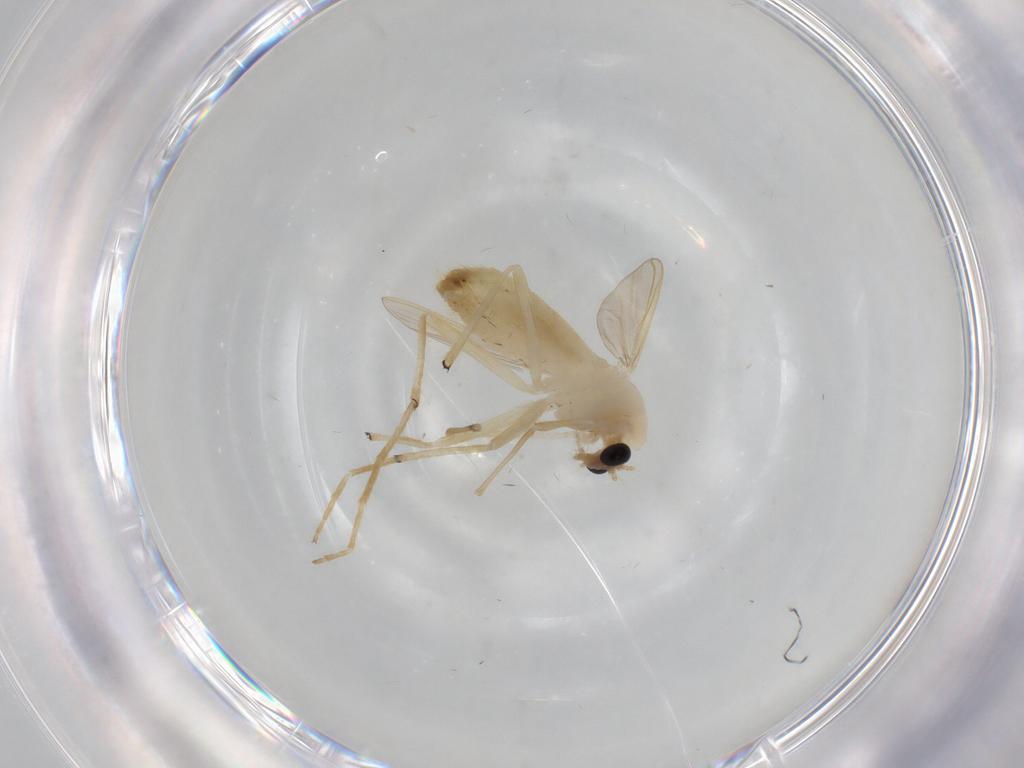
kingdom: Animalia
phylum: Arthropoda
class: Insecta
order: Diptera
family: Chironomidae
